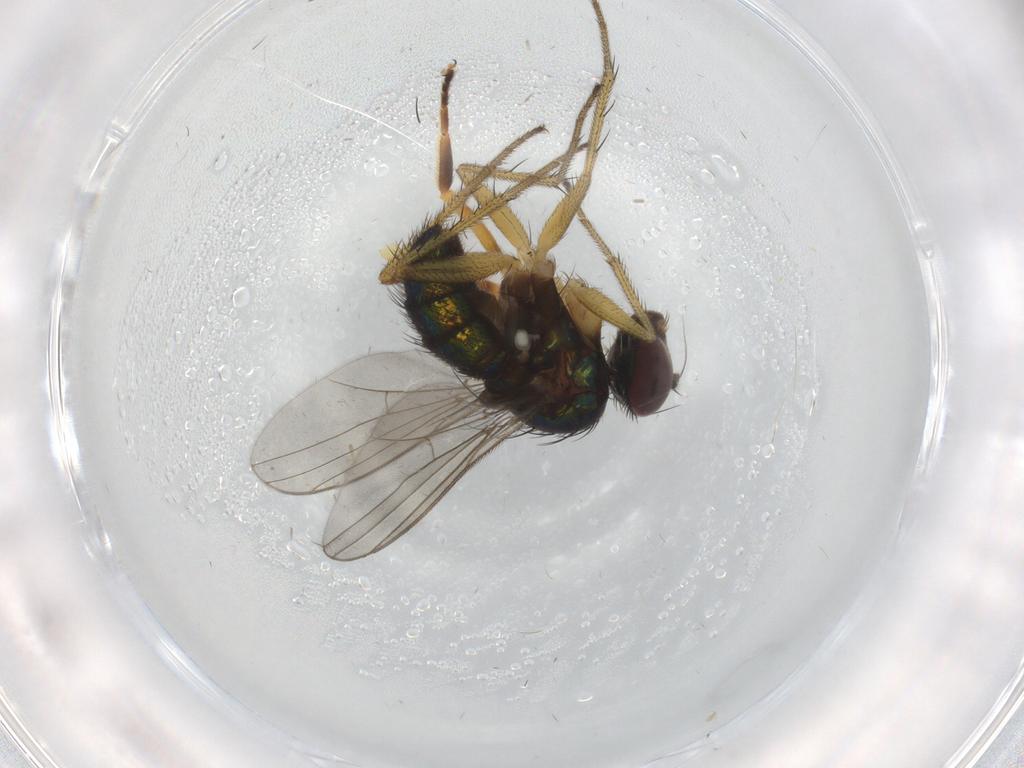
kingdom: Animalia
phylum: Arthropoda
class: Insecta
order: Diptera
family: Dolichopodidae
